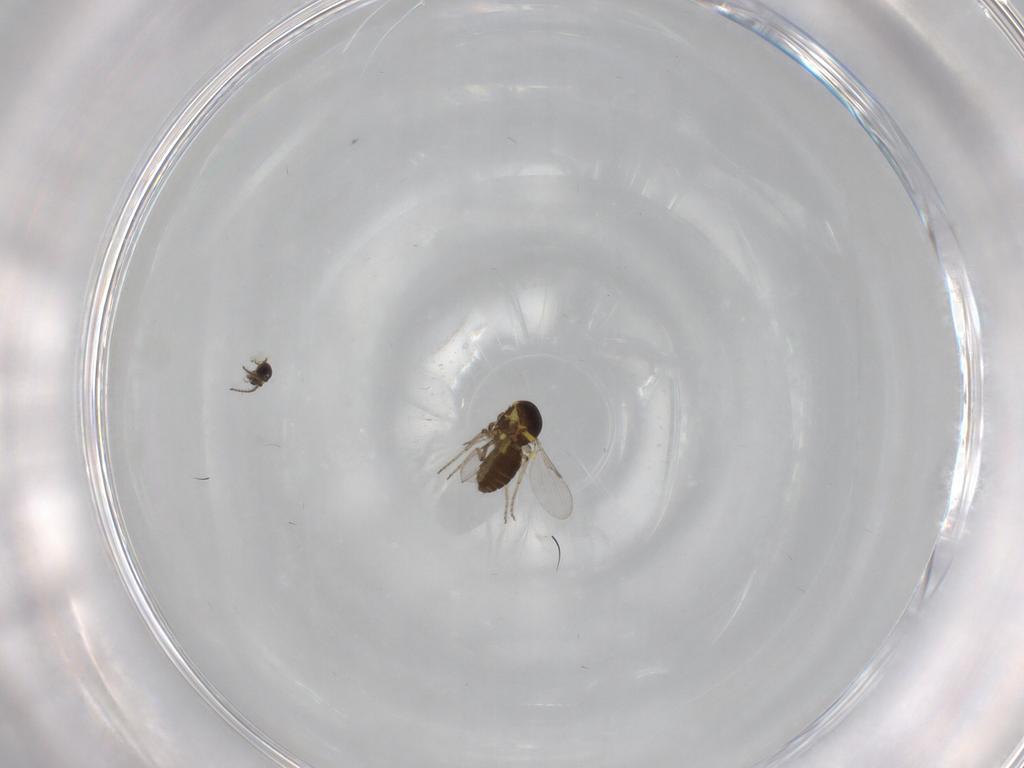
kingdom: Animalia
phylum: Arthropoda
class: Insecta
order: Diptera
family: Ceratopogonidae
